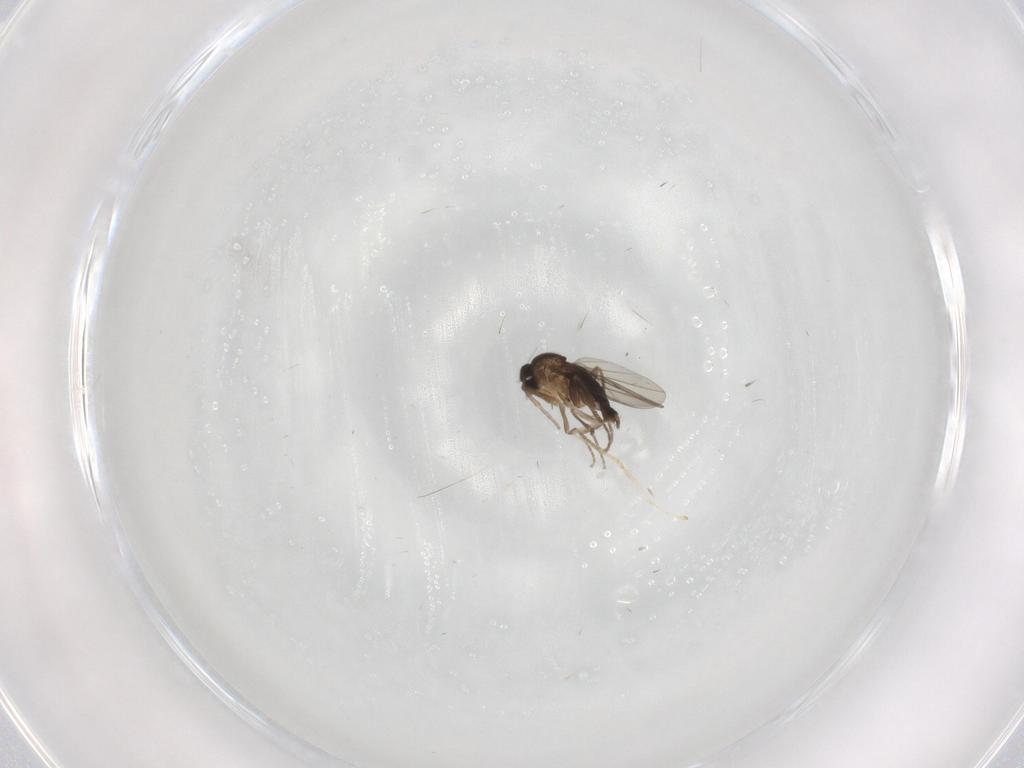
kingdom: Animalia
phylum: Arthropoda
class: Insecta
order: Diptera
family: Cecidomyiidae
